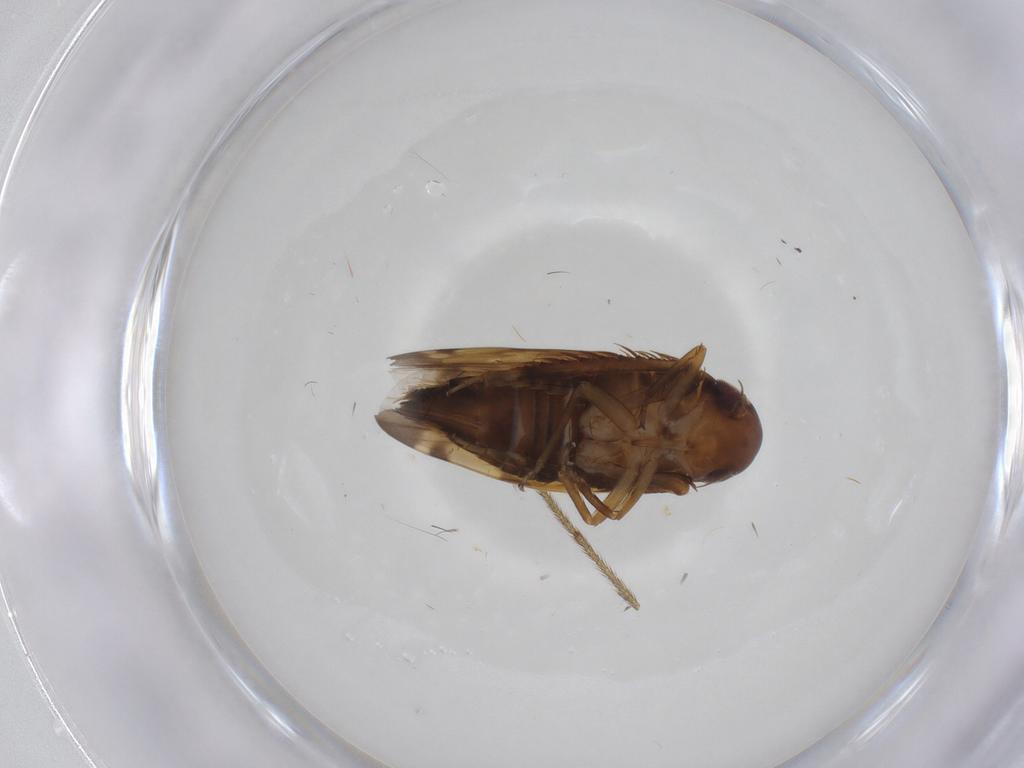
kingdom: Animalia
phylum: Arthropoda
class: Insecta
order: Hemiptera
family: Cicadellidae
